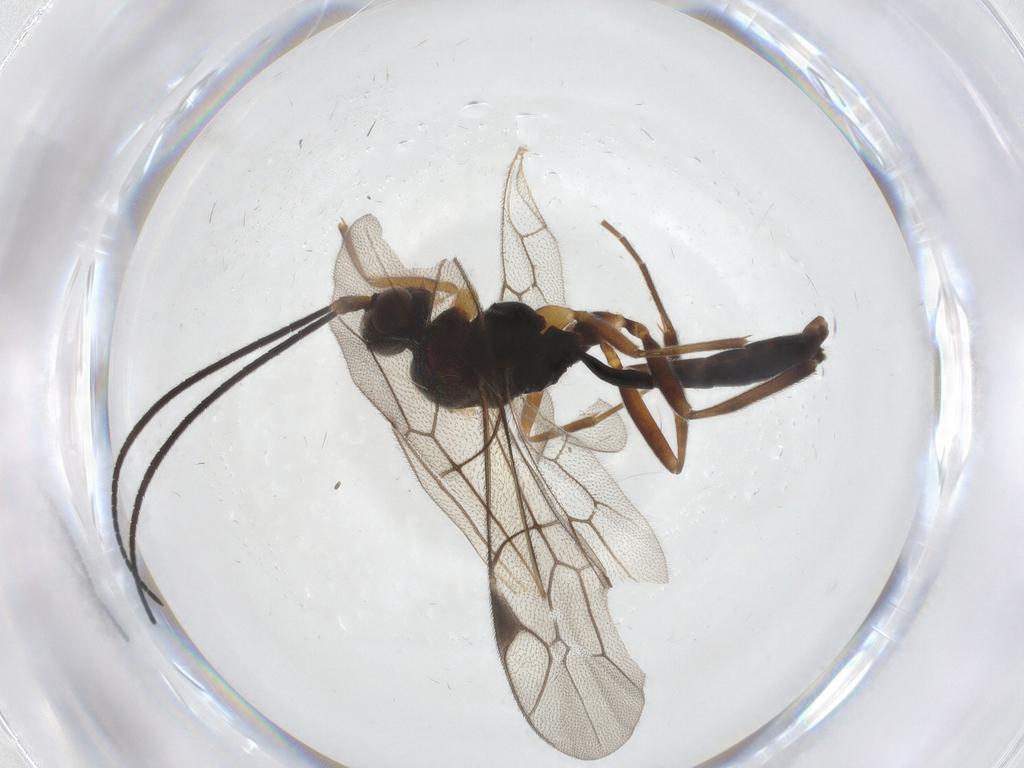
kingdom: Animalia
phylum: Arthropoda
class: Insecta
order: Hymenoptera
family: Ichneumonidae
